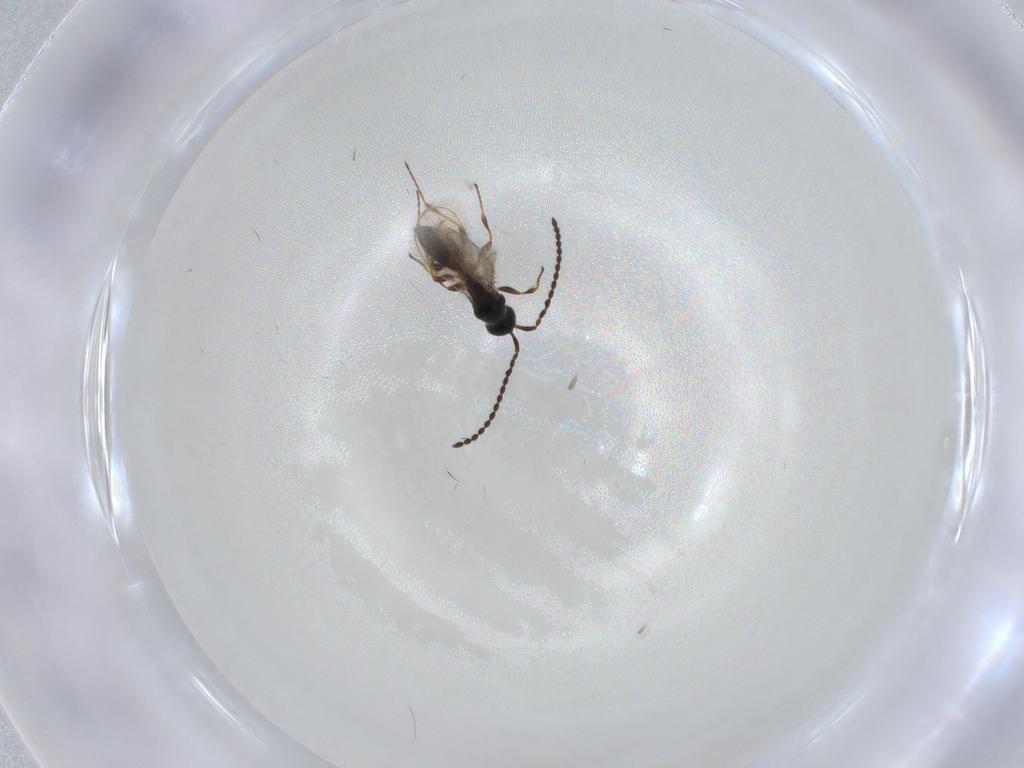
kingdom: Animalia
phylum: Arthropoda
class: Insecta
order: Hymenoptera
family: Diapriidae
